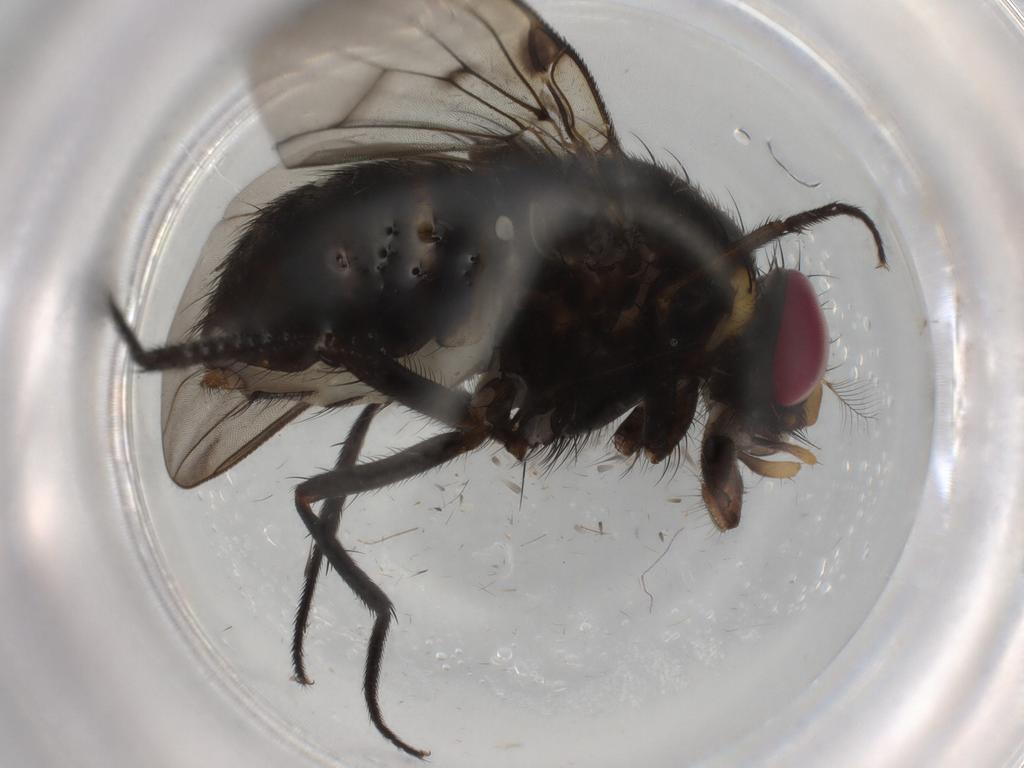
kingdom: Animalia
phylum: Arthropoda
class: Insecta
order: Diptera
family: Muscidae
